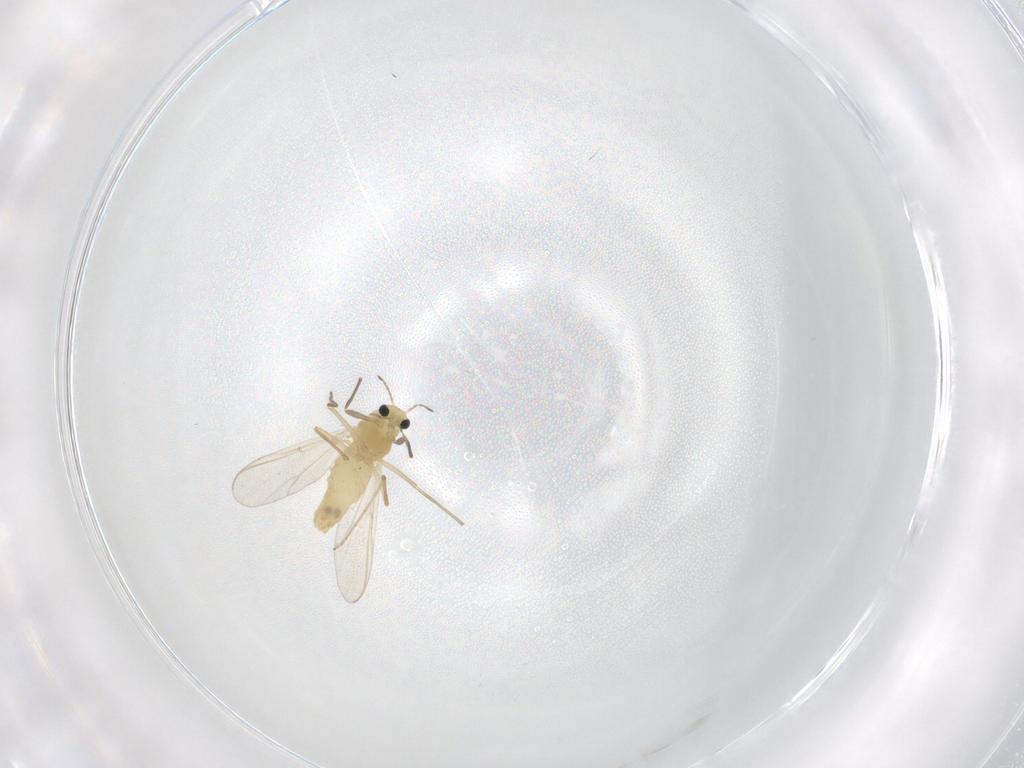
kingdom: Animalia
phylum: Arthropoda
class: Insecta
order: Diptera
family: Chironomidae
